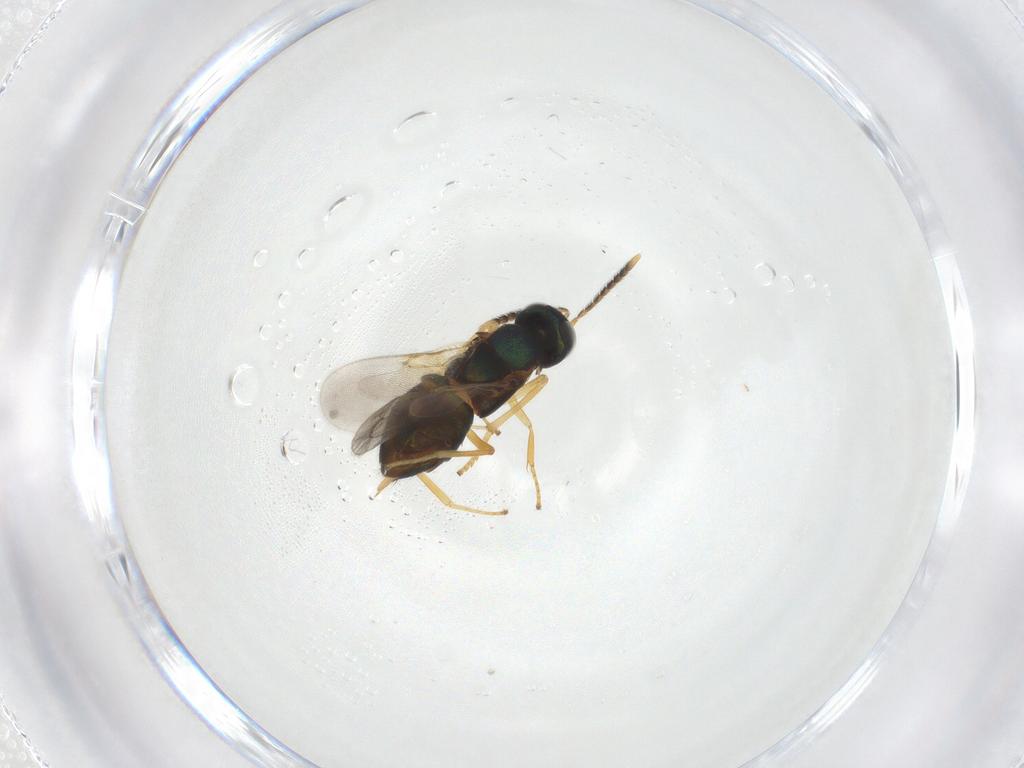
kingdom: Animalia
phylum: Arthropoda
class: Insecta
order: Hymenoptera
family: Encyrtidae
